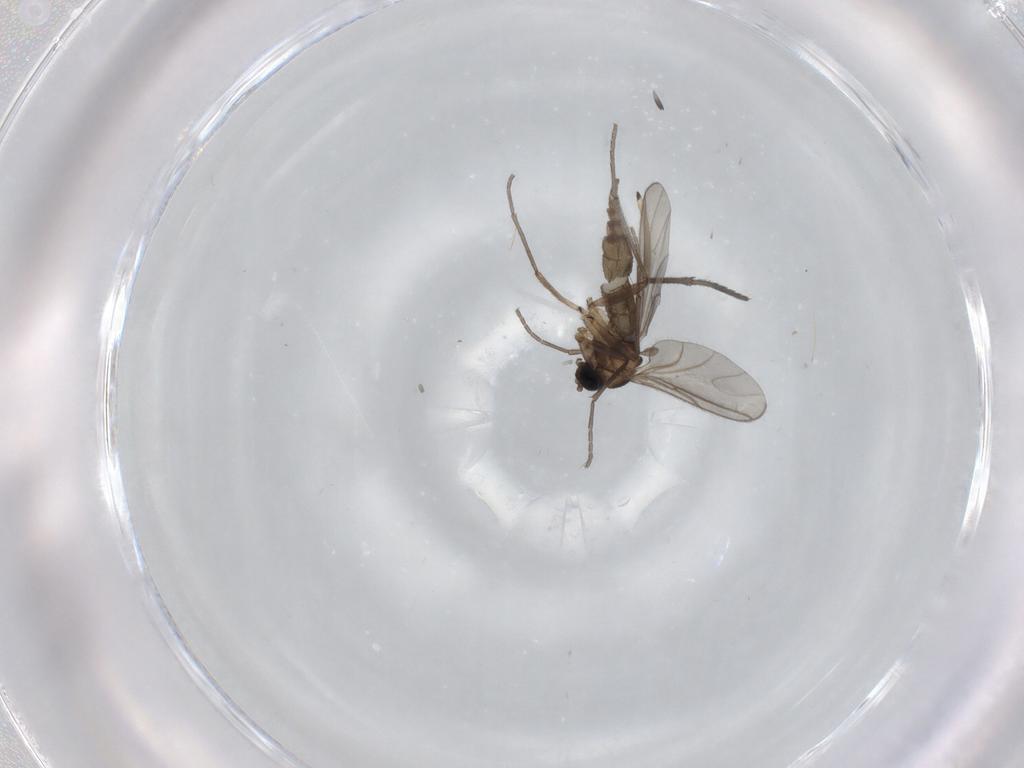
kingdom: Animalia
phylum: Arthropoda
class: Insecta
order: Diptera
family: Sciaridae
